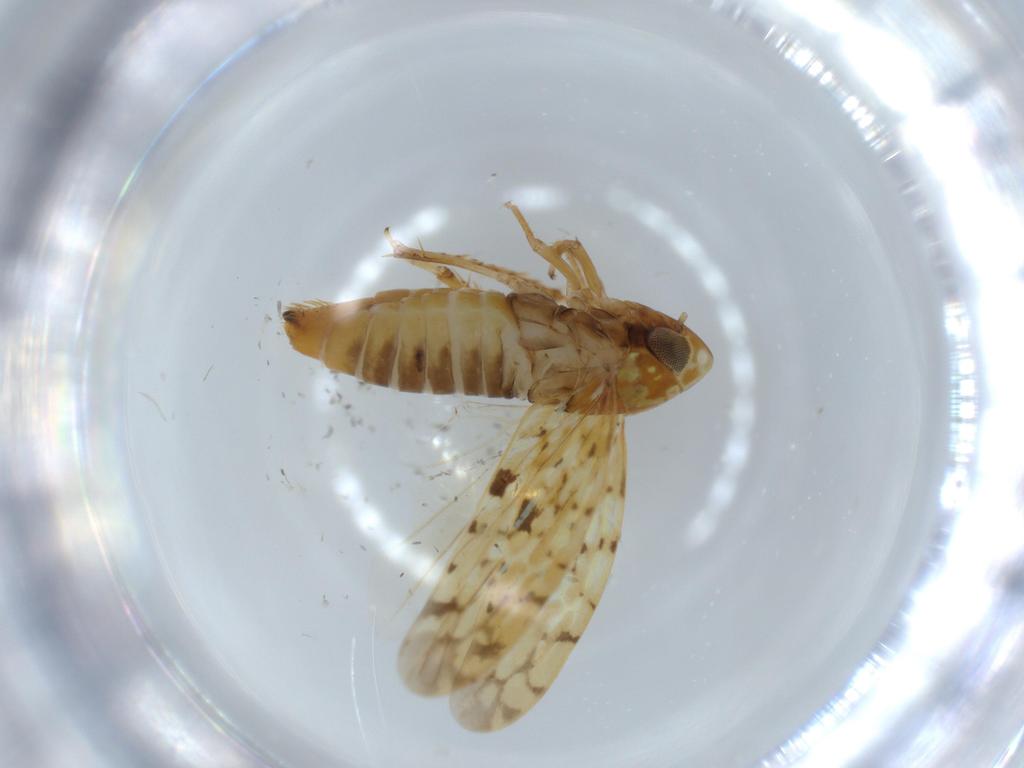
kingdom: Animalia
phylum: Arthropoda
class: Insecta
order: Hemiptera
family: Cicadellidae
